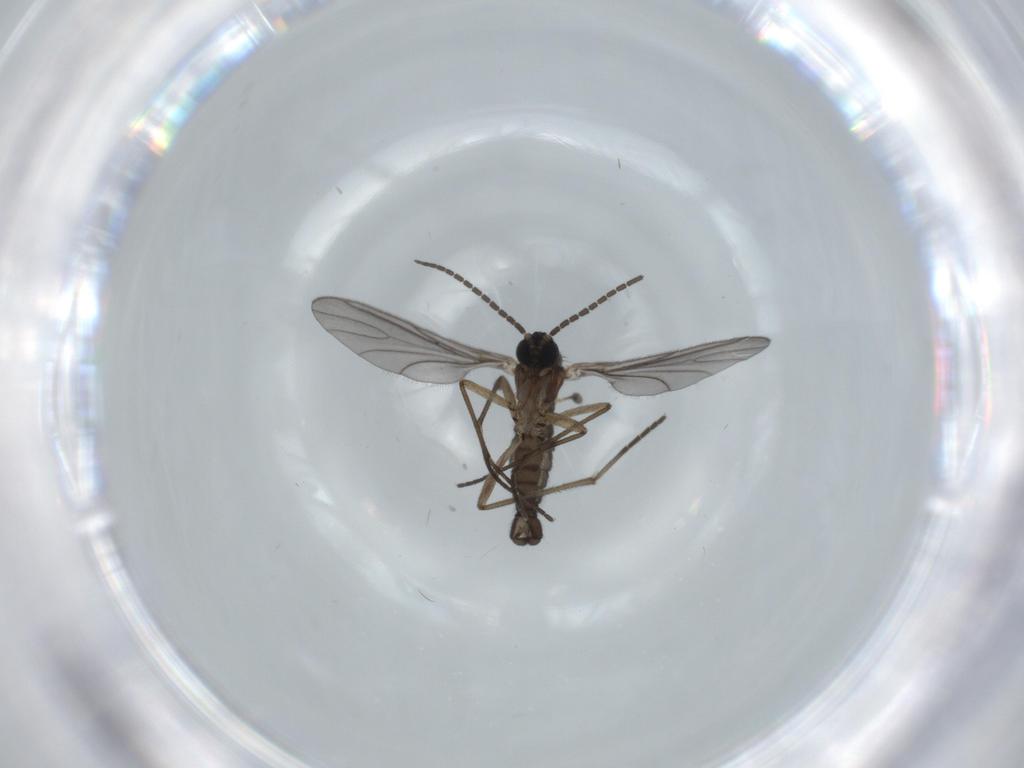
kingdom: Animalia
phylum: Arthropoda
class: Insecta
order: Diptera
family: Sciaridae
